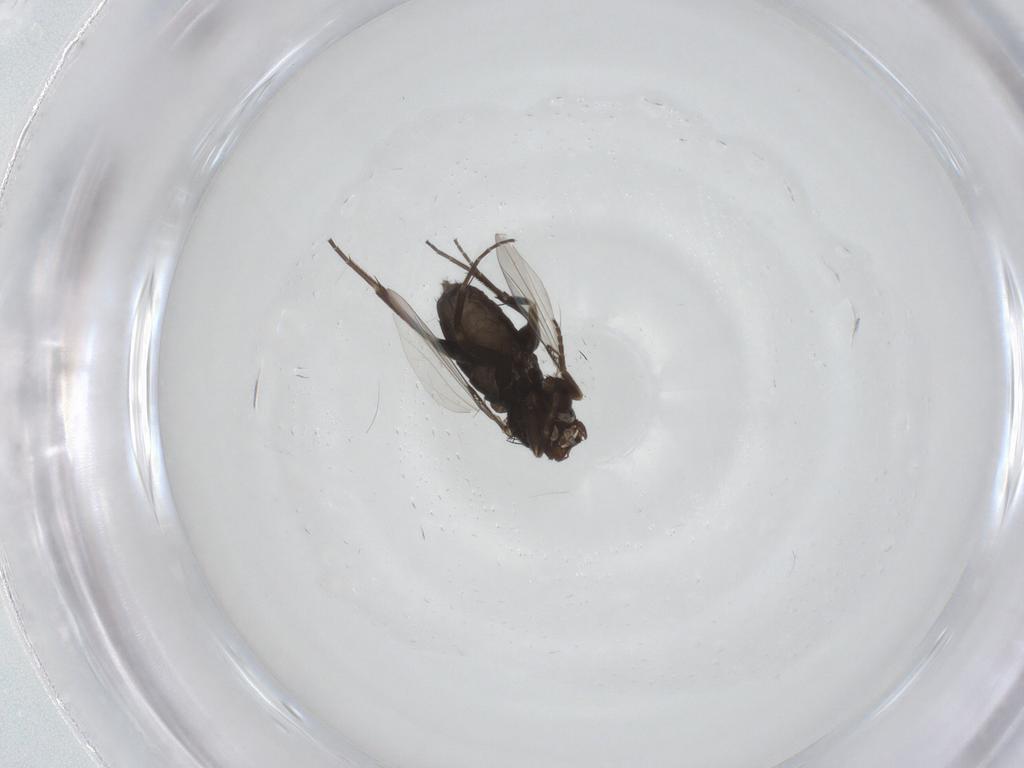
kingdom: Animalia
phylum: Arthropoda
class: Insecta
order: Diptera
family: Phoridae
